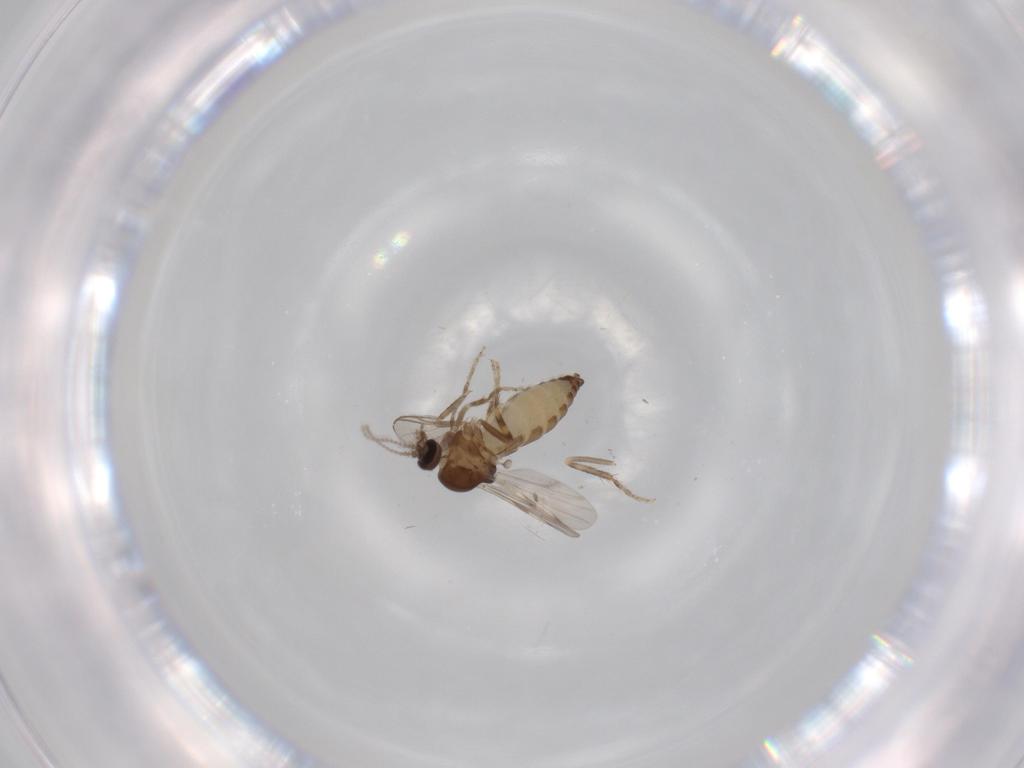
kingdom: Animalia
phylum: Arthropoda
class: Insecta
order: Diptera
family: Ceratopogonidae
